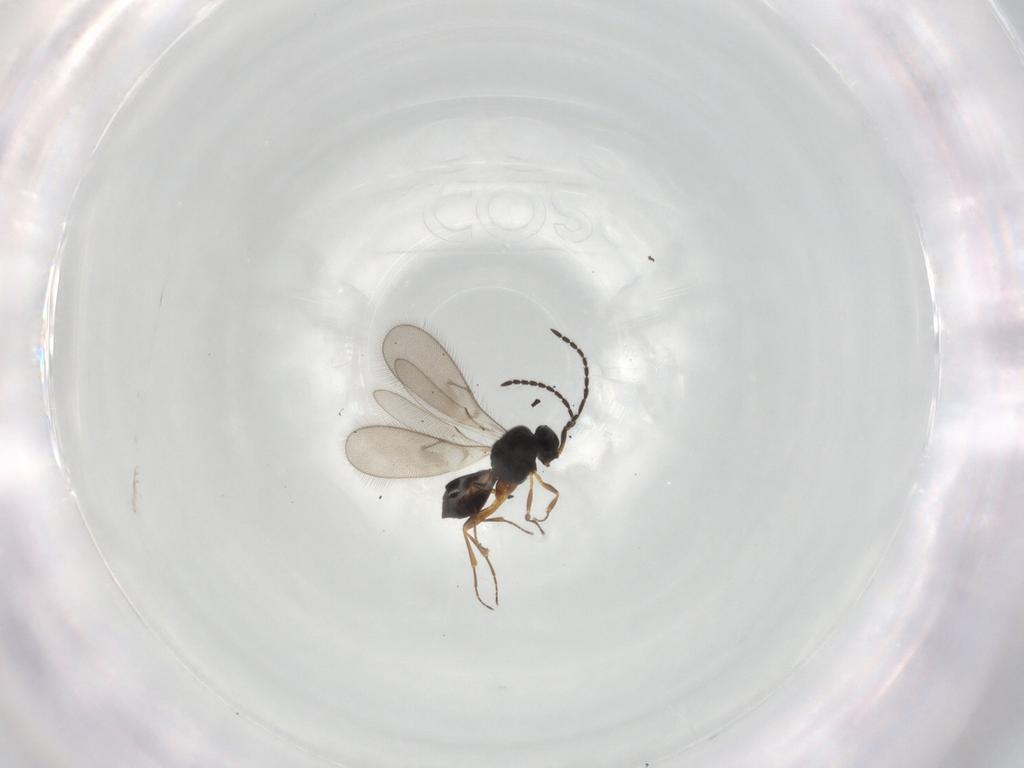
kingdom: Animalia
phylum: Arthropoda
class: Insecta
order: Hymenoptera
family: Scelionidae
